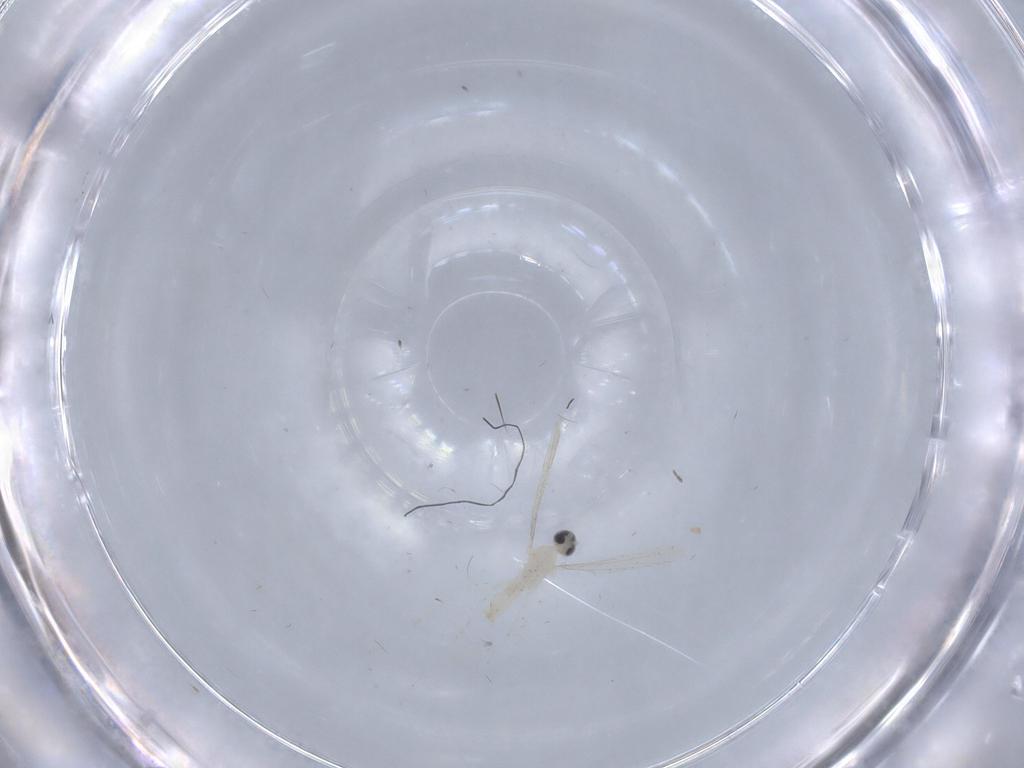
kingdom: Animalia
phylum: Arthropoda
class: Insecta
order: Diptera
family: Ceratopogonidae
